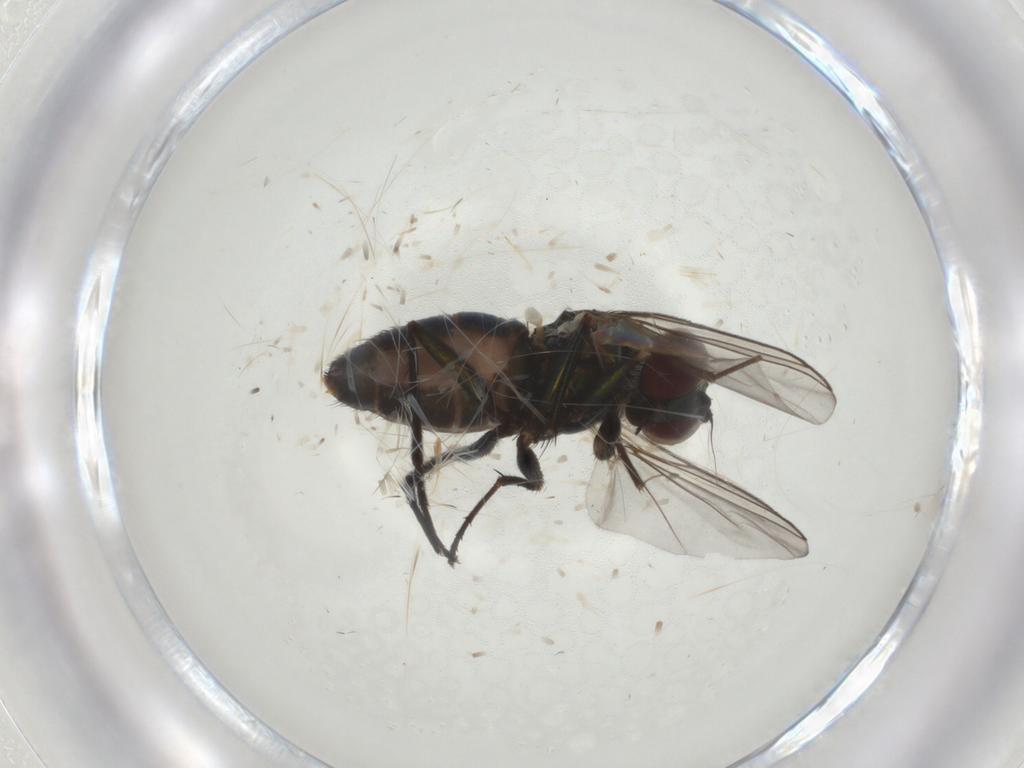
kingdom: Animalia
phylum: Arthropoda
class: Insecta
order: Diptera
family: Dolichopodidae
